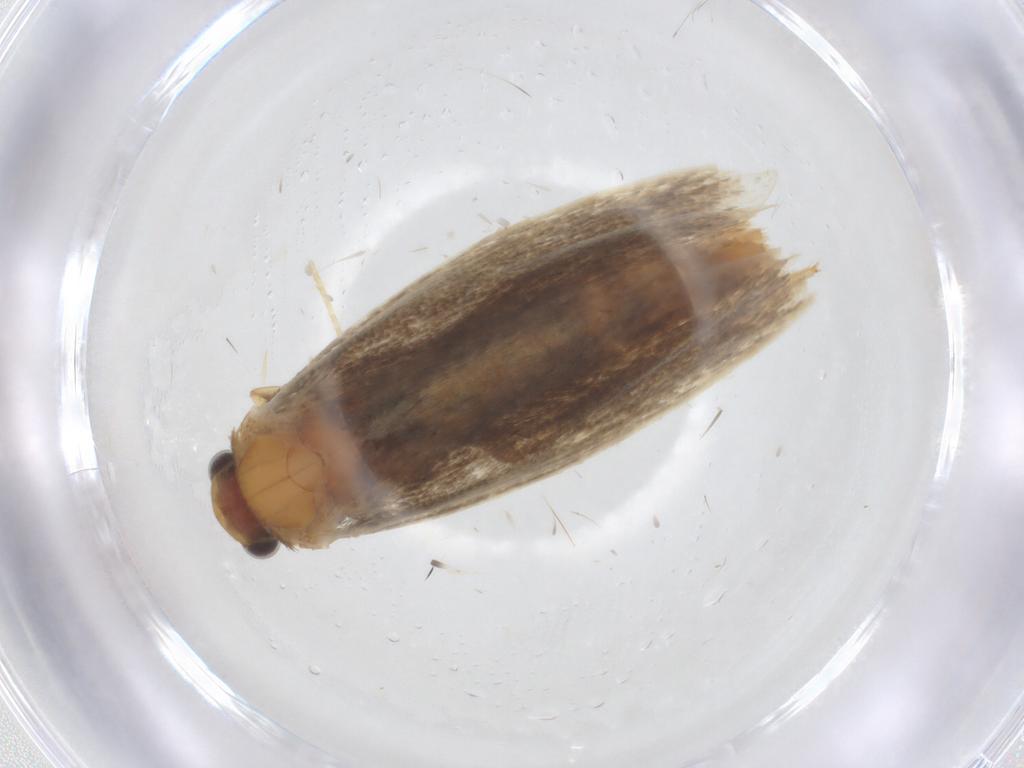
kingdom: Animalia
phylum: Arthropoda
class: Insecta
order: Lepidoptera
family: Tineidae
